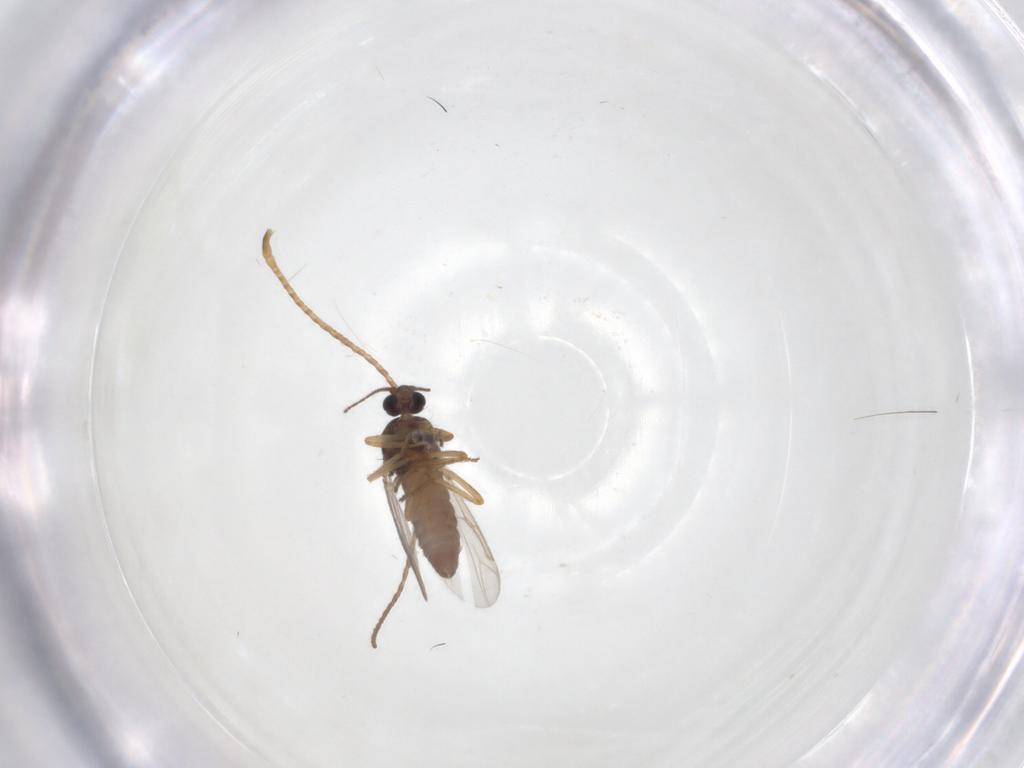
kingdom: Animalia
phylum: Arthropoda
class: Insecta
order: Diptera
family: Ceratopogonidae
